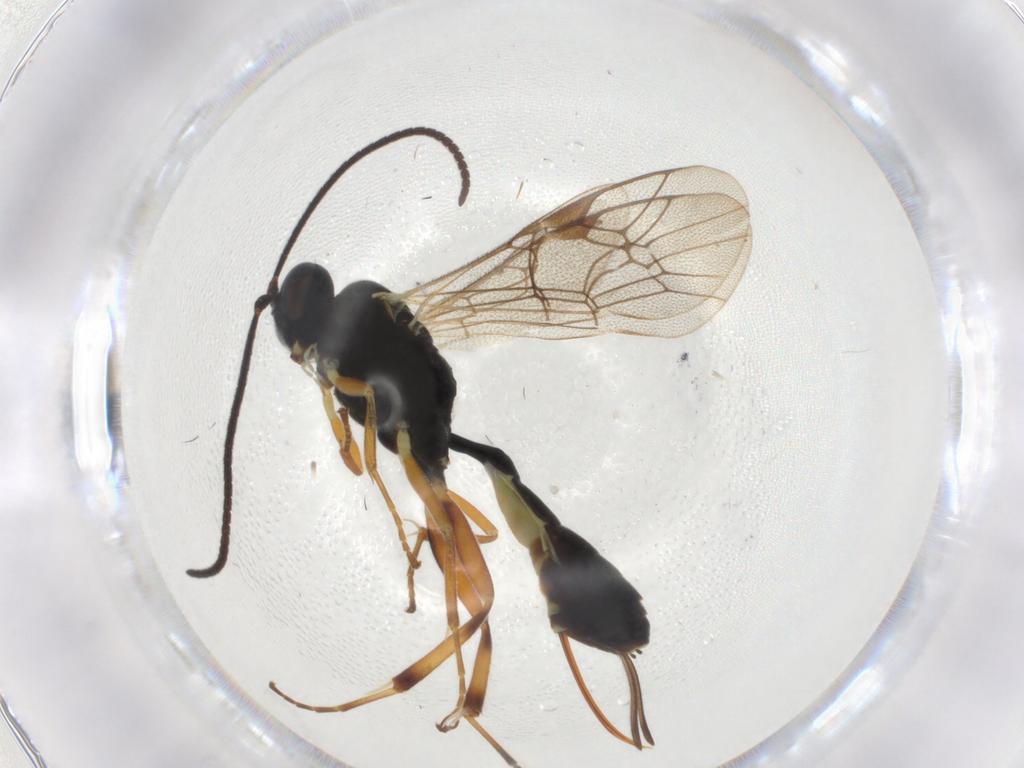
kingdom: Animalia
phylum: Arthropoda
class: Insecta
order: Hymenoptera
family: Ichneumonidae
